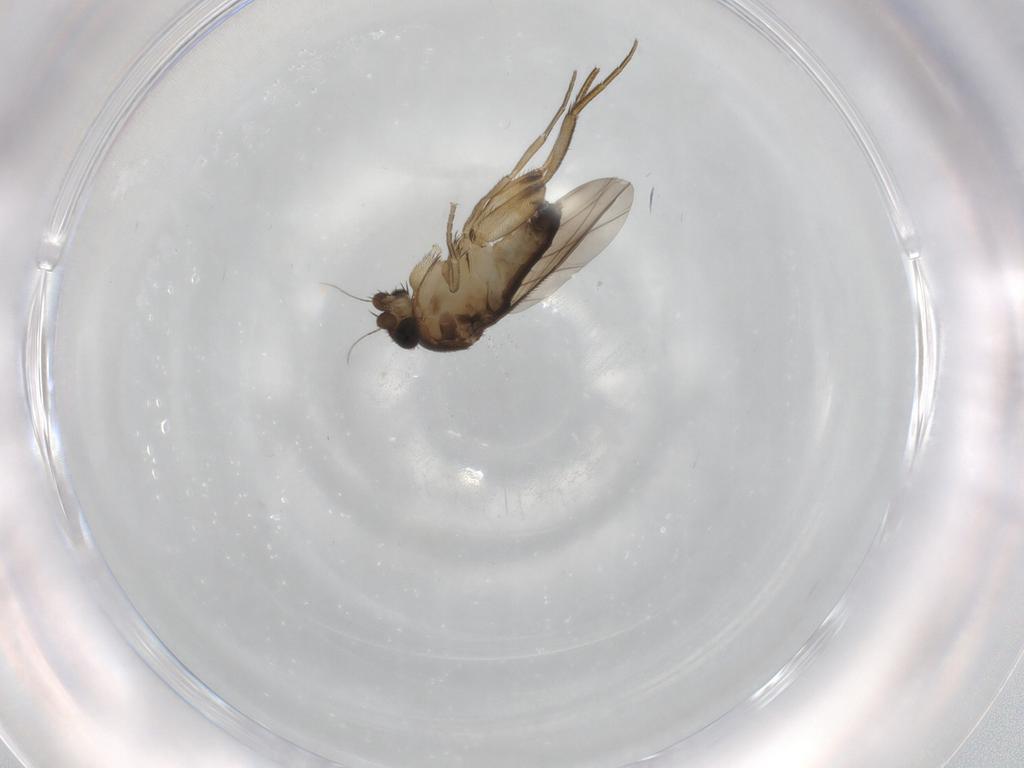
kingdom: Animalia
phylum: Arthropoda
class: Insecta
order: Diptera
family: Phoridae
